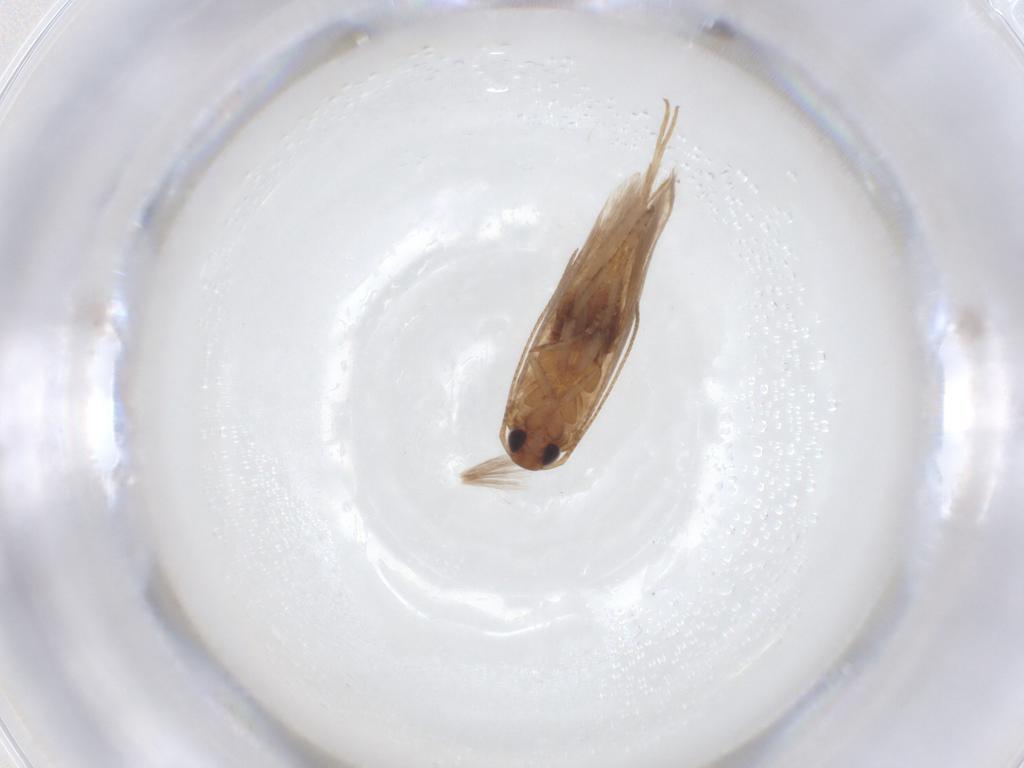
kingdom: Animalia
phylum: Arthropoda
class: Insecta
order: Lepidoptera
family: Gelechiidae
